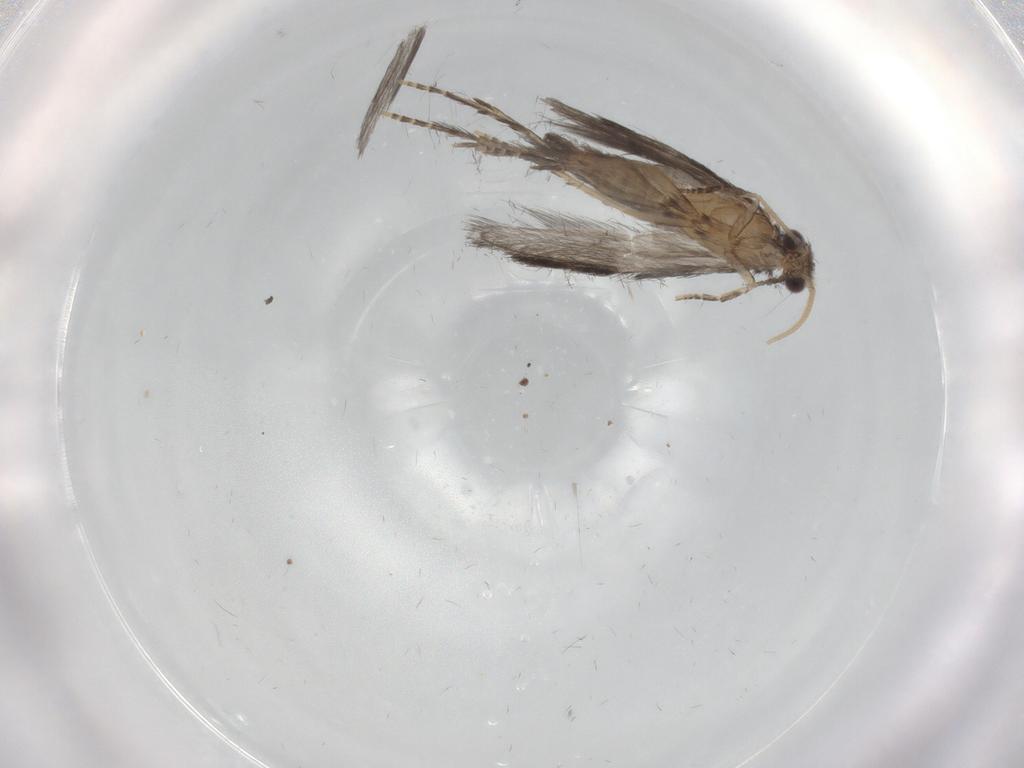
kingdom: Animalia
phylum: Arthropoda
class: Insecta
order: Trichoptera
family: Hydroptilidae
